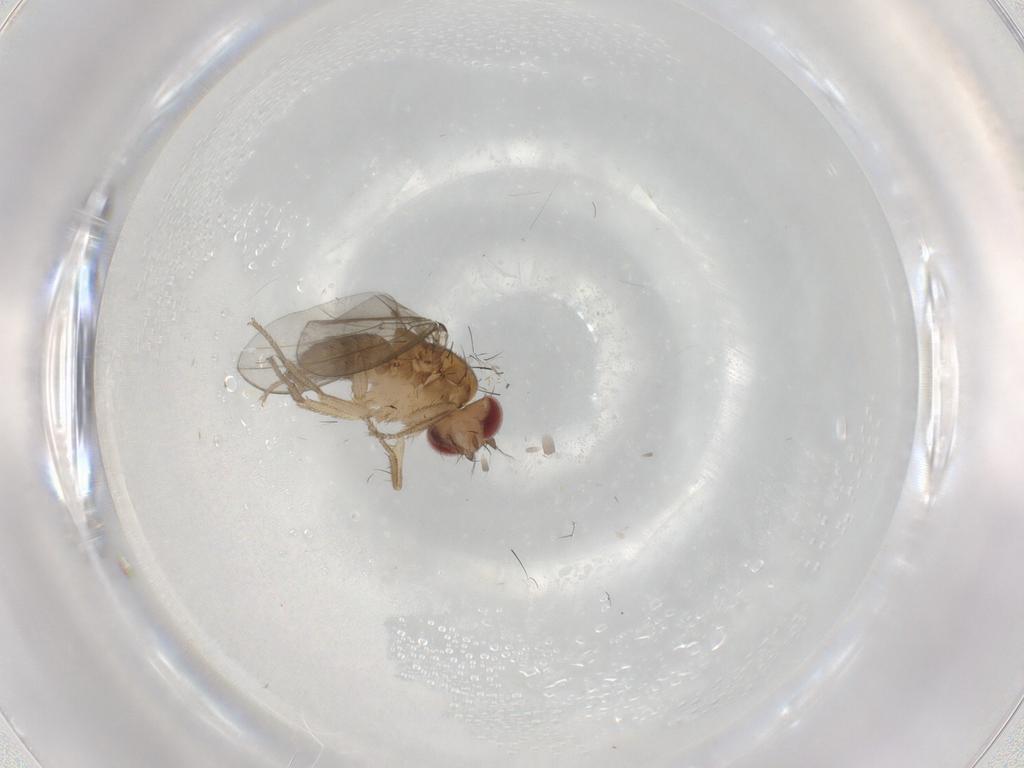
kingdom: Animalia
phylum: Arthropoda
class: Insecta
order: Diptera
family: Drosophilidae
